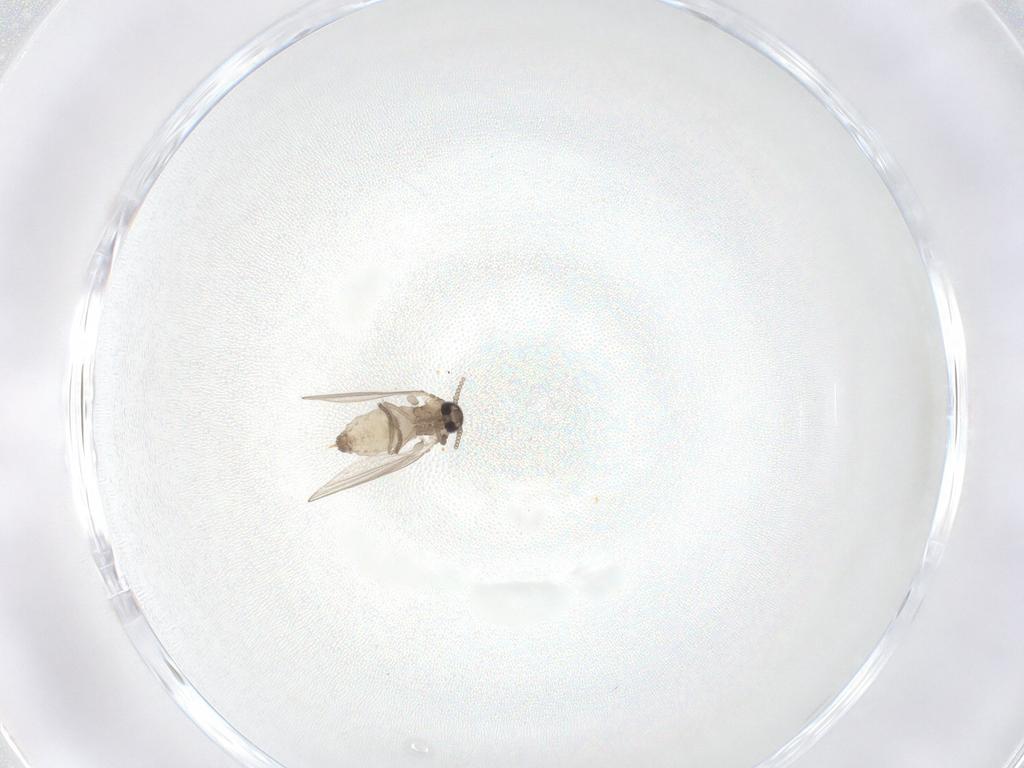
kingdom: Animalia
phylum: Arthropoda
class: Insecta
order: Diptera
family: Psychodidae
